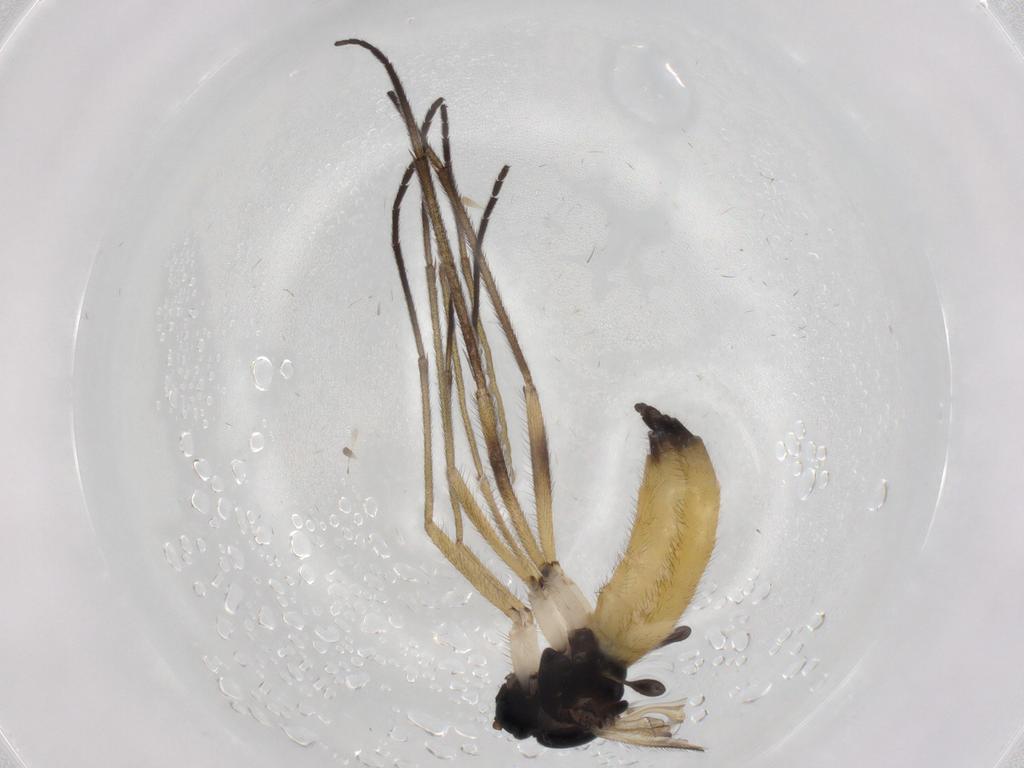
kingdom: Animalia
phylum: Arthropoda
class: Insecta
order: Diptera
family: Sciaridae
